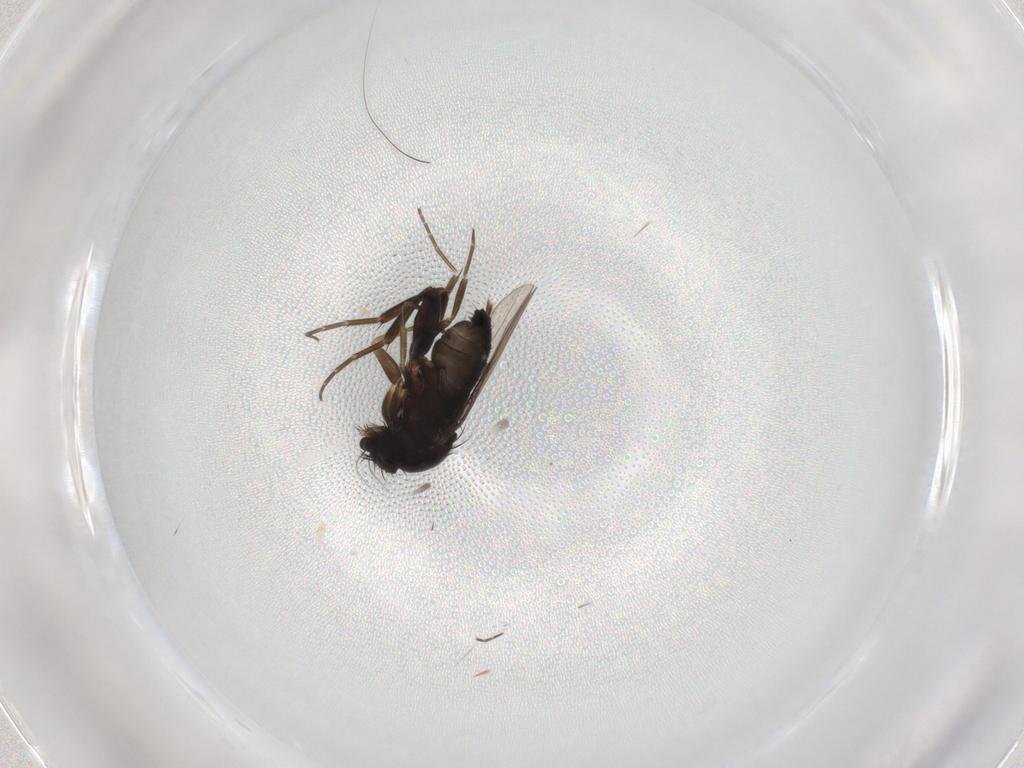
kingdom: Animalia
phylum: Arthropoda
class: Insecta
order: Diptera
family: Phoridae
